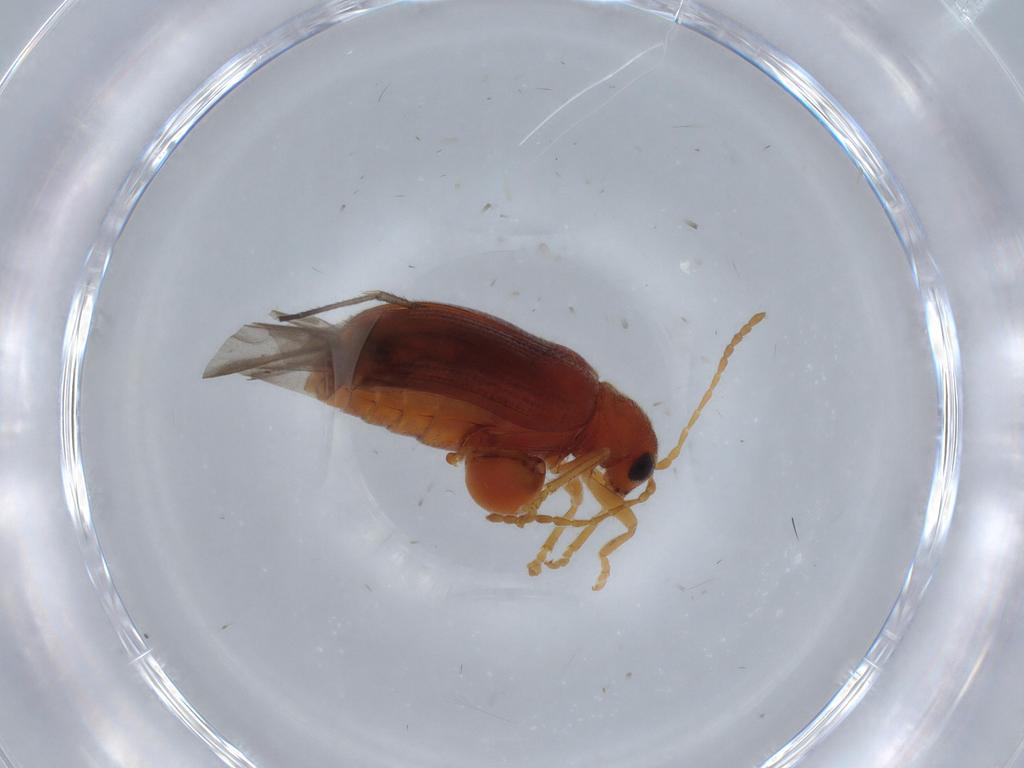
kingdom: Animalia
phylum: Arthropoda
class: Insecta
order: Coleoptera
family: Chrysomelidae
